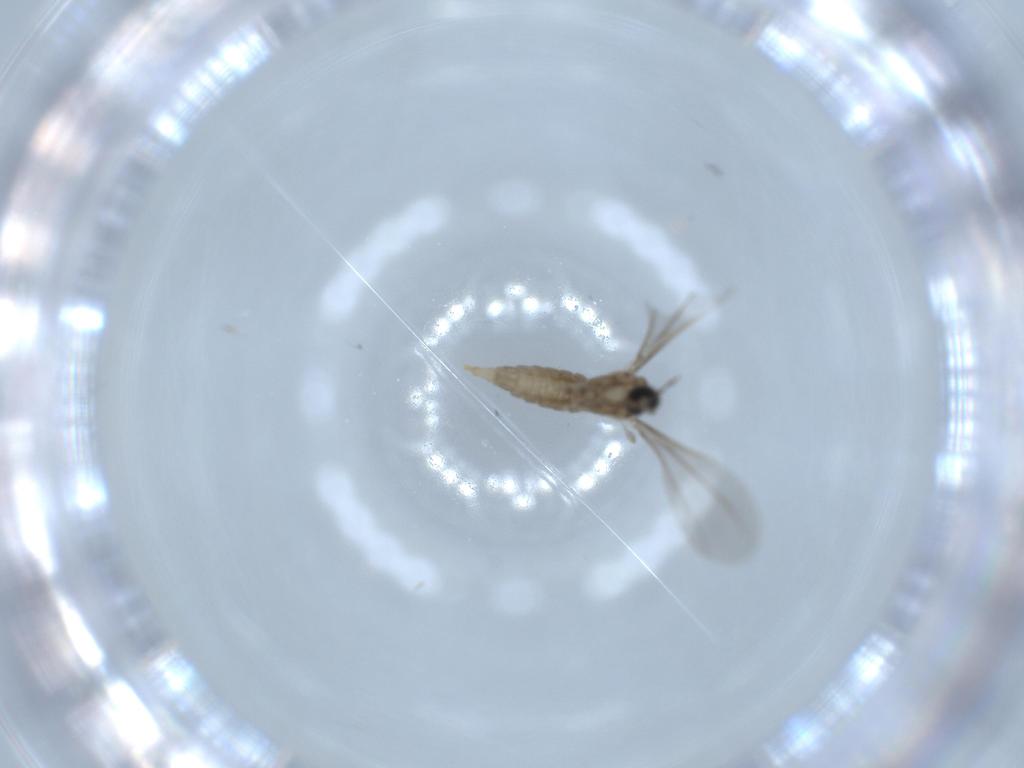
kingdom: Animalia
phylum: Arthropoda
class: Insecta
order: Diptera
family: Cecidomyiidae
